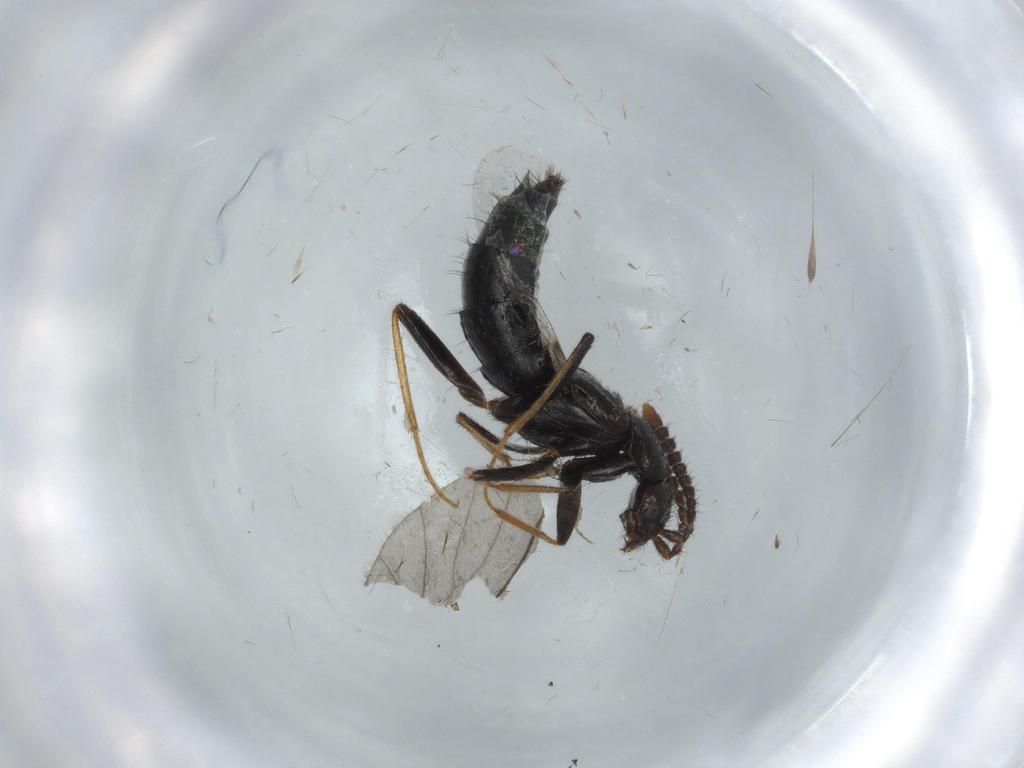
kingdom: Animalia
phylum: Arthropoda
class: Insecta
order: Coleoptera
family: Staphylinidae
